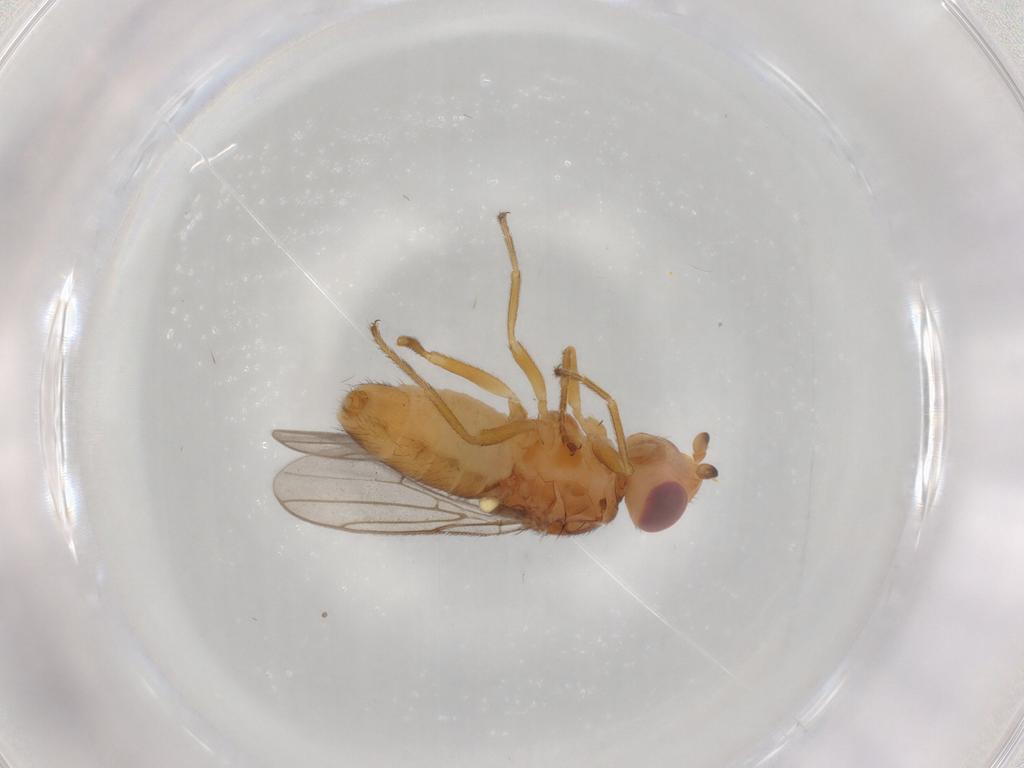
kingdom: Animalia
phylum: Arthropoda
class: Insecta
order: Diptera
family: Chloropidae
